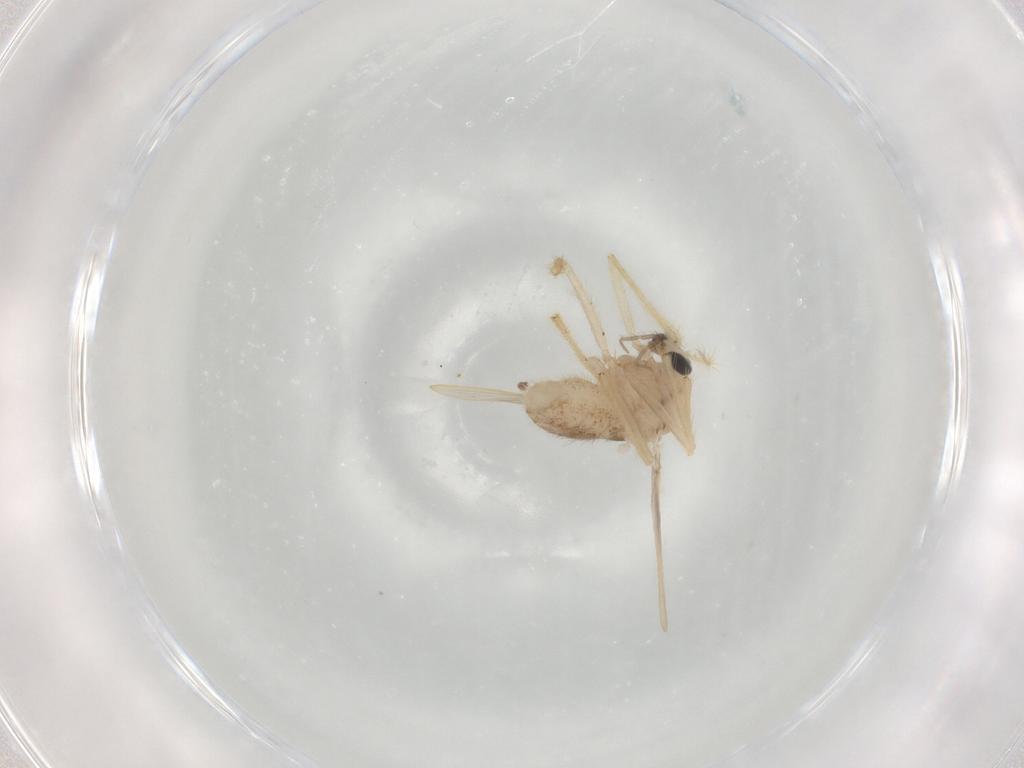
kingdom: Animalia
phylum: Arthropoda
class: Insecta
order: Diptera
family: Chironomidae
